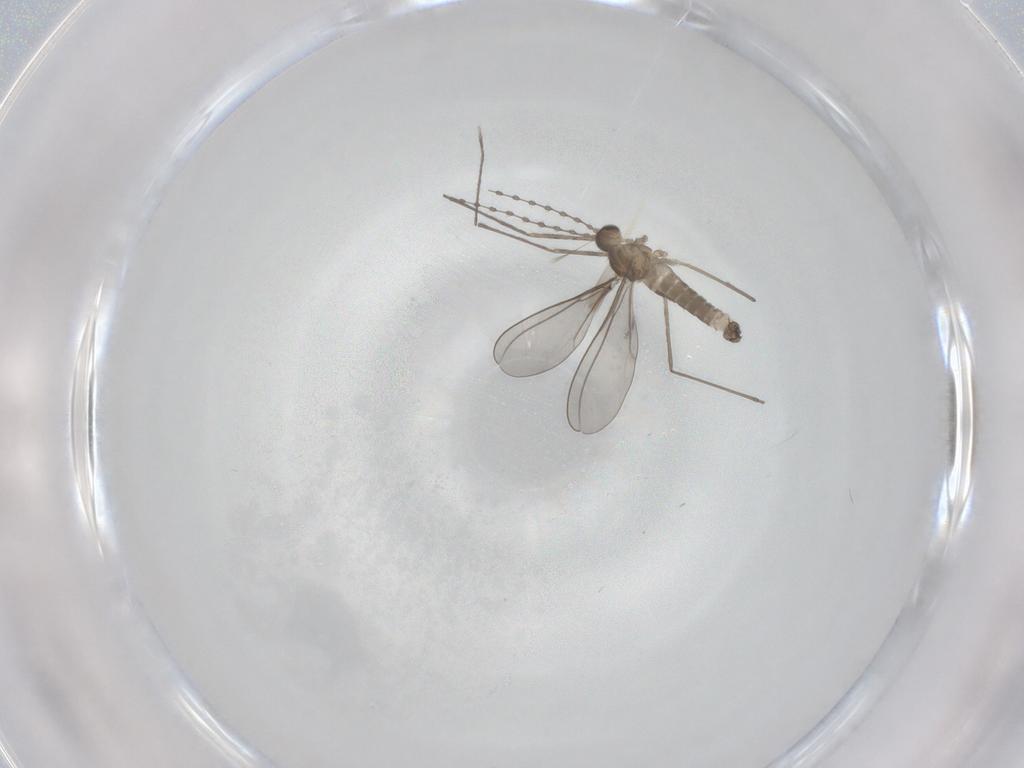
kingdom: Animalia
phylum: Arthropoda
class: Insecta
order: Diptera
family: Cecidomyiidae
